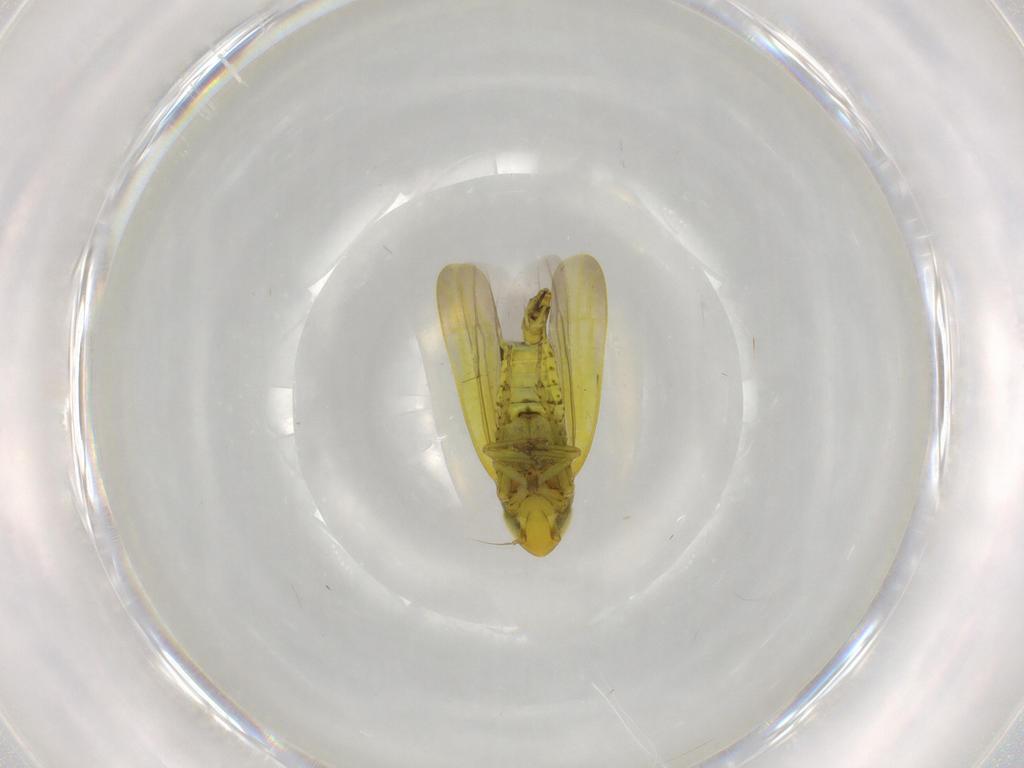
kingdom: Animalia
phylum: Arthropoda
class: Insecta
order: Hemiptera
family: Cicadellidae
